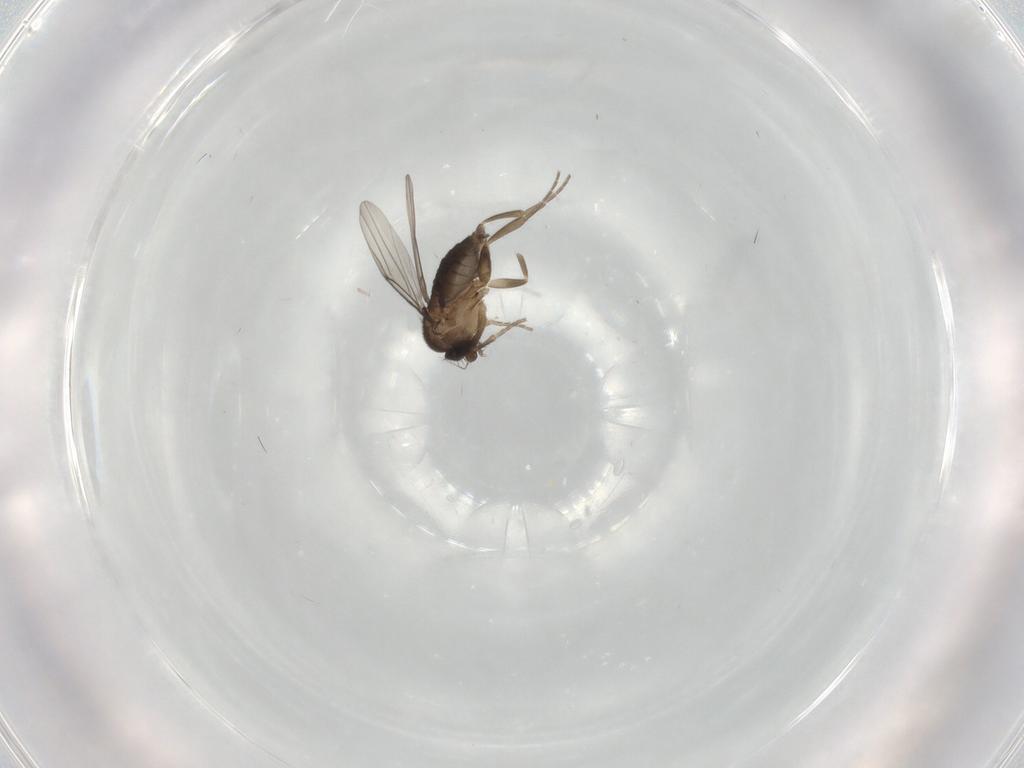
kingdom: Animalia
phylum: Arthropoda
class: Insecta
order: Diptera
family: Phoridae
